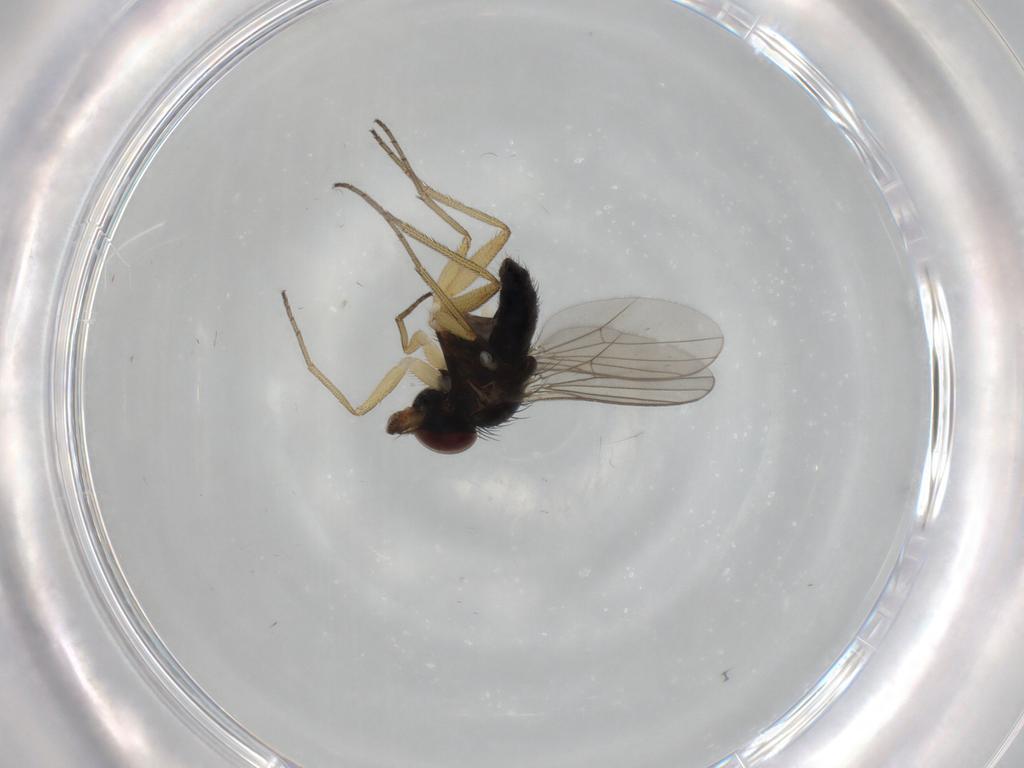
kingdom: Animalia
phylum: Arthropoda
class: Insecta
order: Diptera
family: Dolichopodidae
